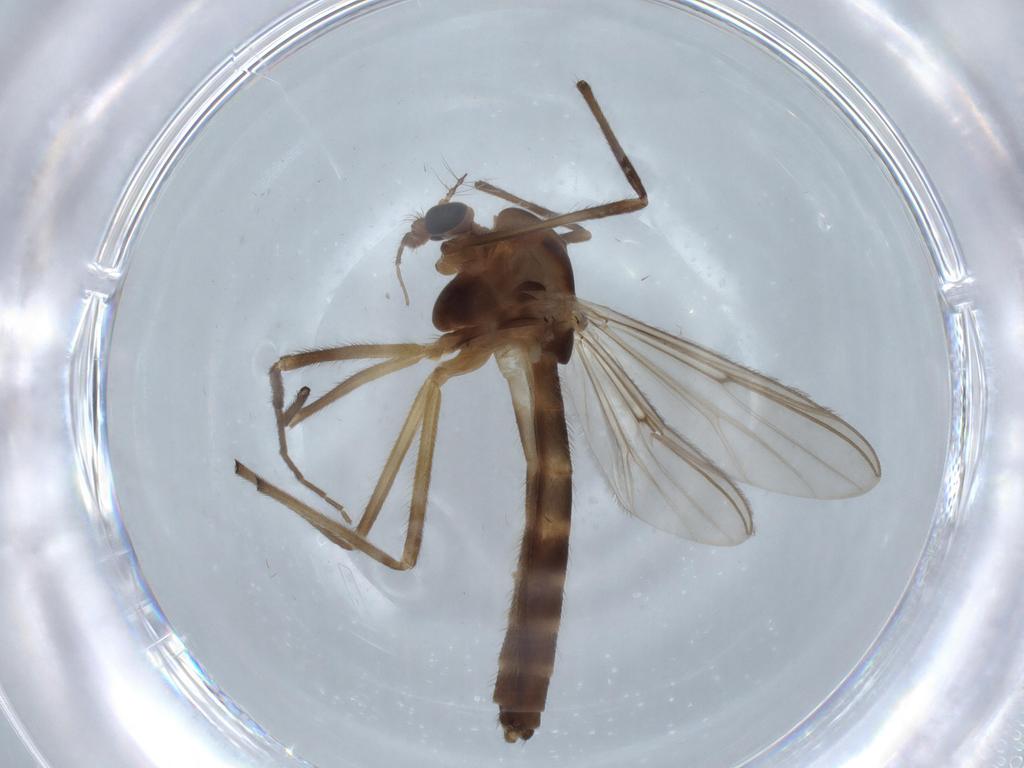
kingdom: Animalia
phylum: Arthropoda
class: Insecta
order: Diptera
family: Chironomidae
